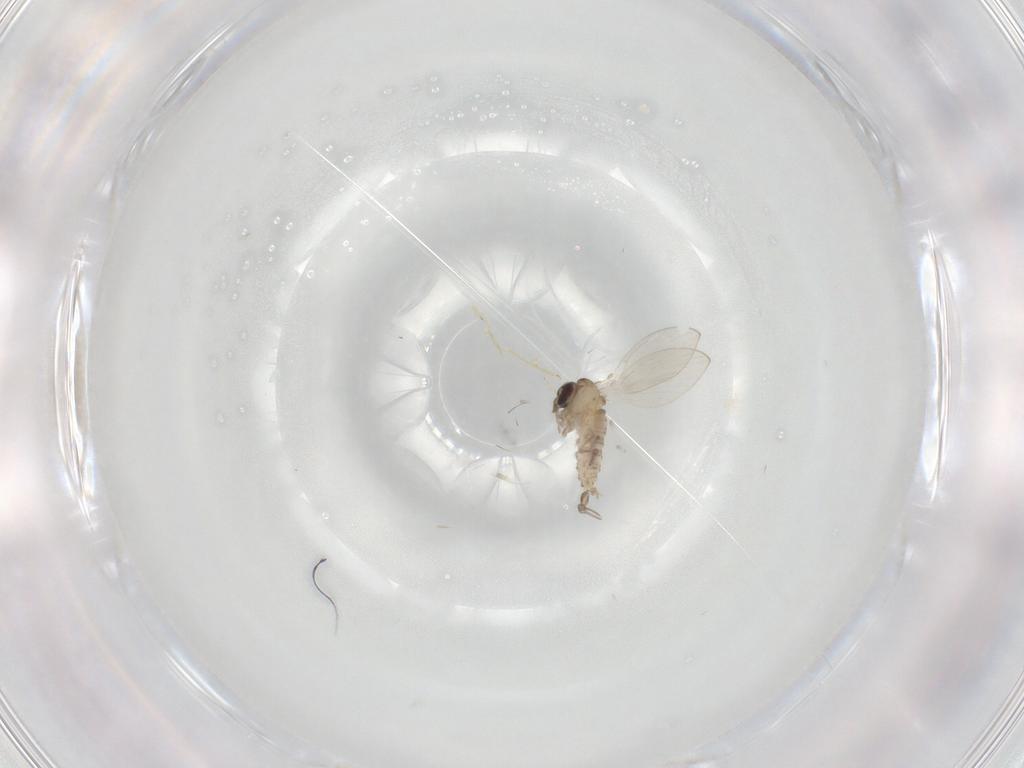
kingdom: Animalia
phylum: Arthropoda
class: Insecta
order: Diptera
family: Psychodidae
